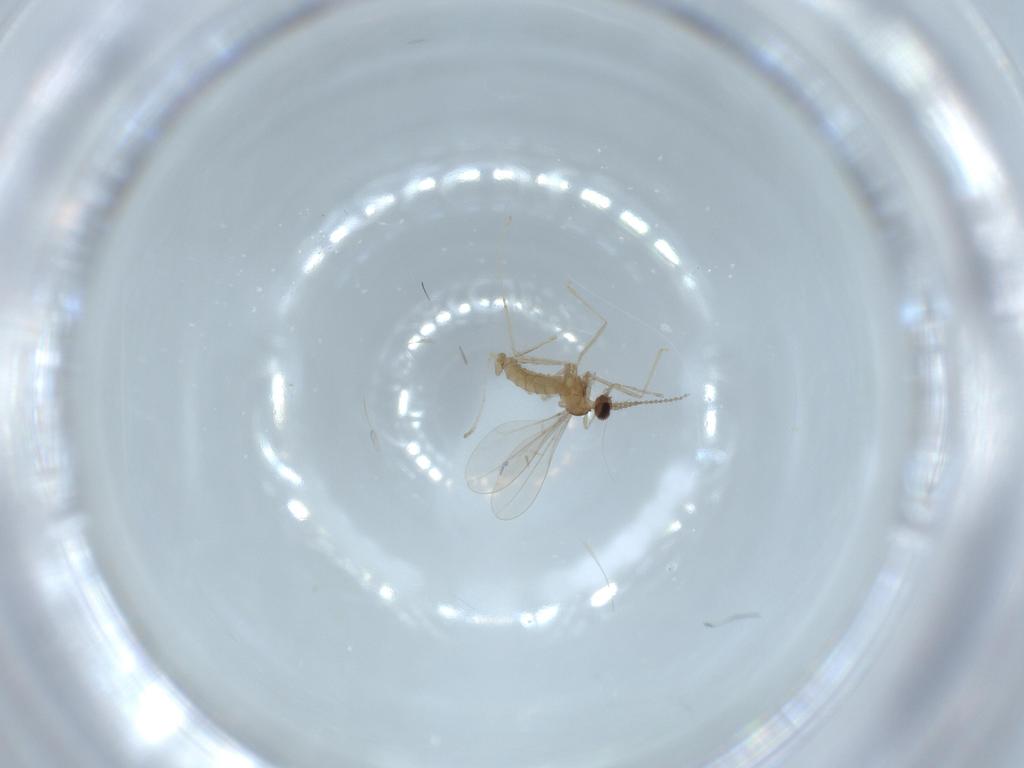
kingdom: Animalia
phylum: Arthropoda
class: Insecta
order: Diptera
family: Cecidomyiidae
